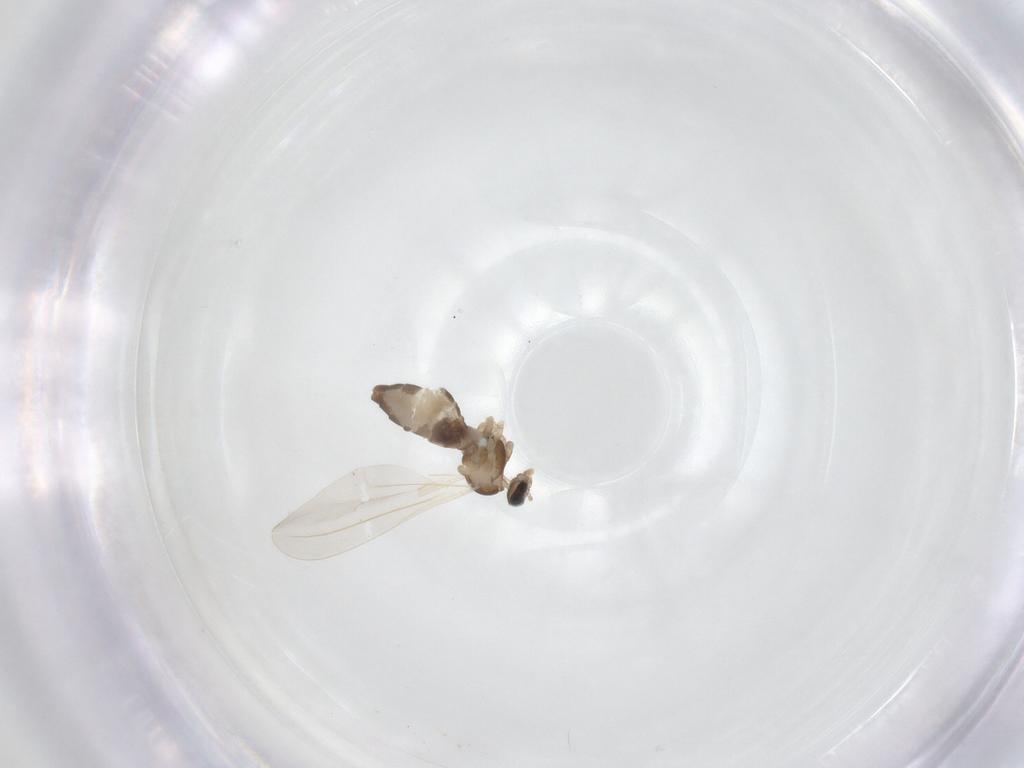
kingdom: Animalia
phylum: Arthropoda
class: Insecta
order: Diptera
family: Cecidomyiidae
